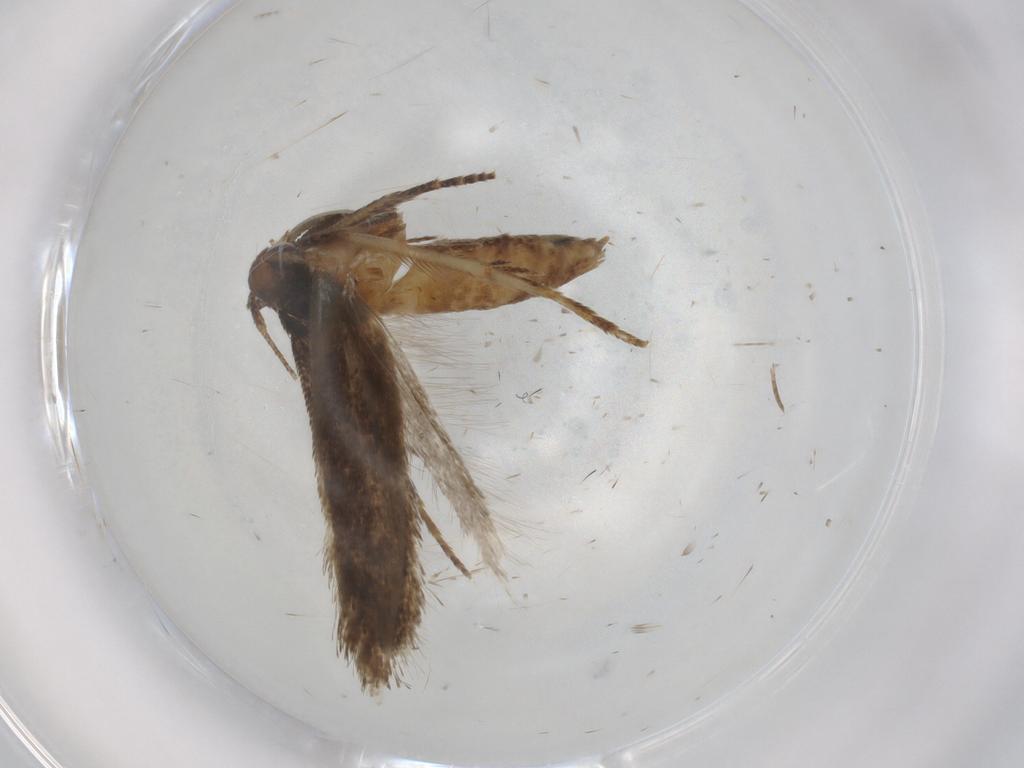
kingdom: Animalia
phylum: Arthropoda
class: Insecta
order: Lepidoptera
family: Cosmopterigidae
